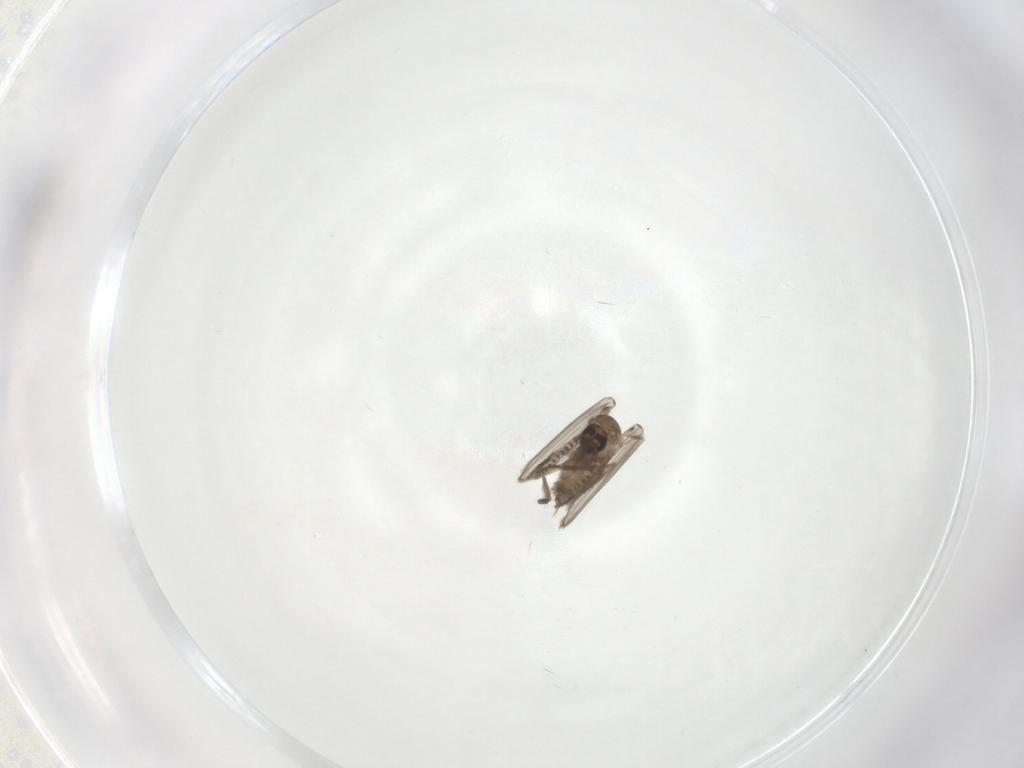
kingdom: Animalia
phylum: Arthropoda
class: Insecta
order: Diptera
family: Psychodidae
